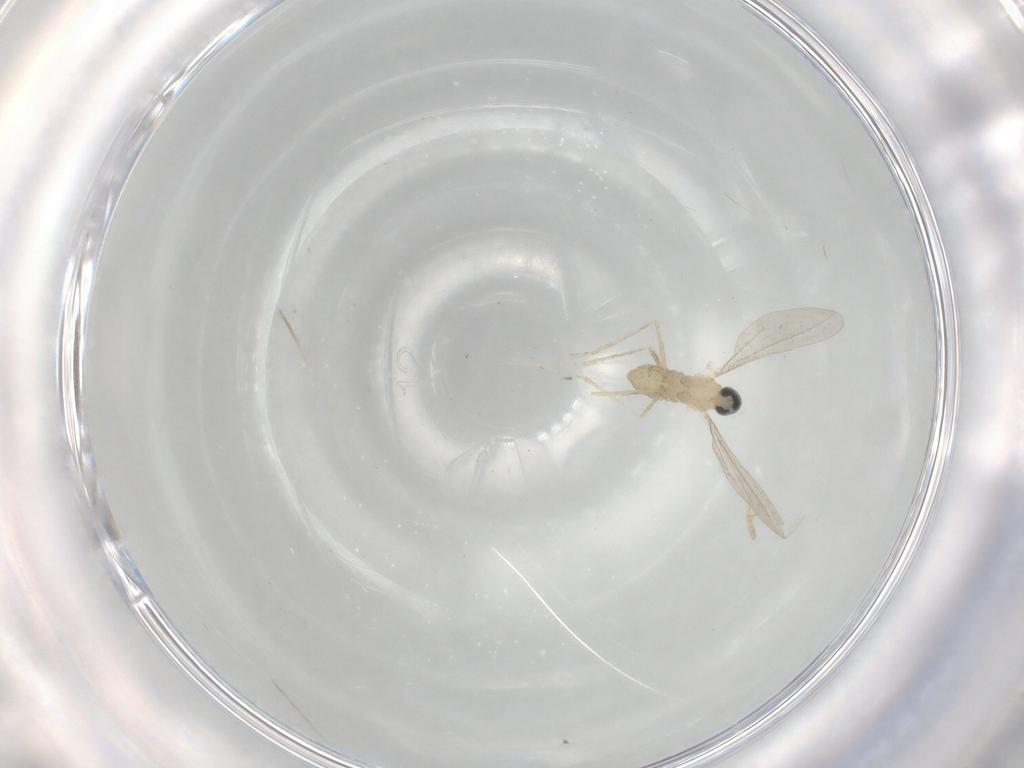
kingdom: Animalia
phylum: Arthropoda
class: Insecta
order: Diptera
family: Cecidomyiidae
